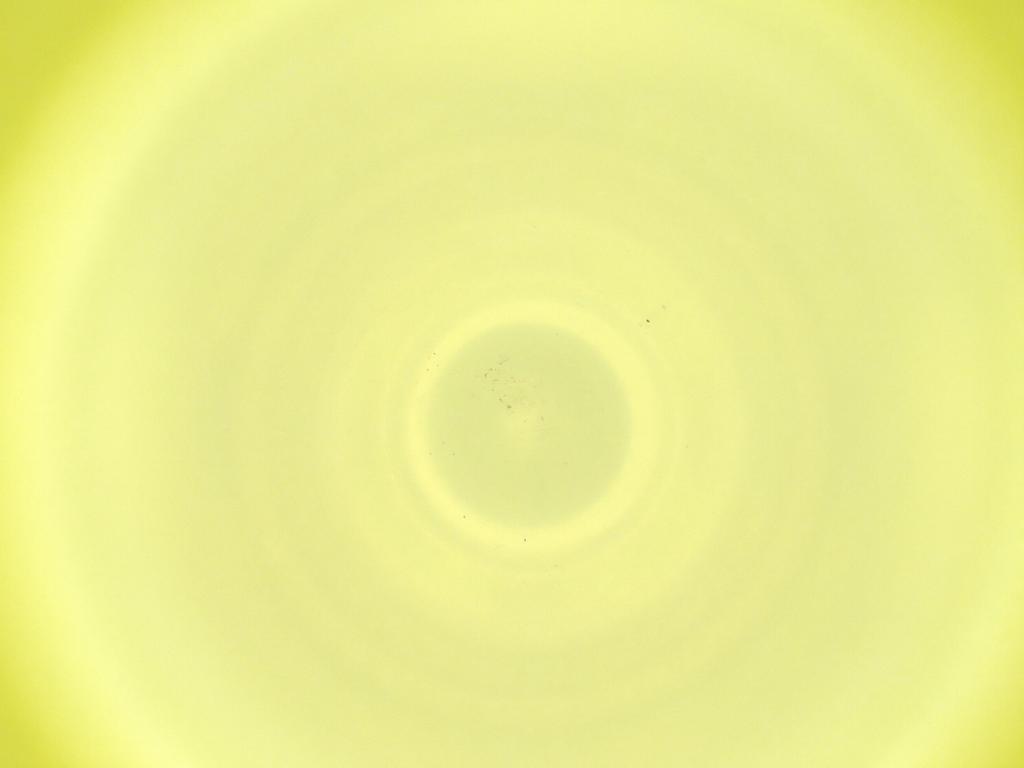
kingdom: Animalia
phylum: Arthropoda
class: Insecta
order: Diptera
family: Cecidomyiidae
